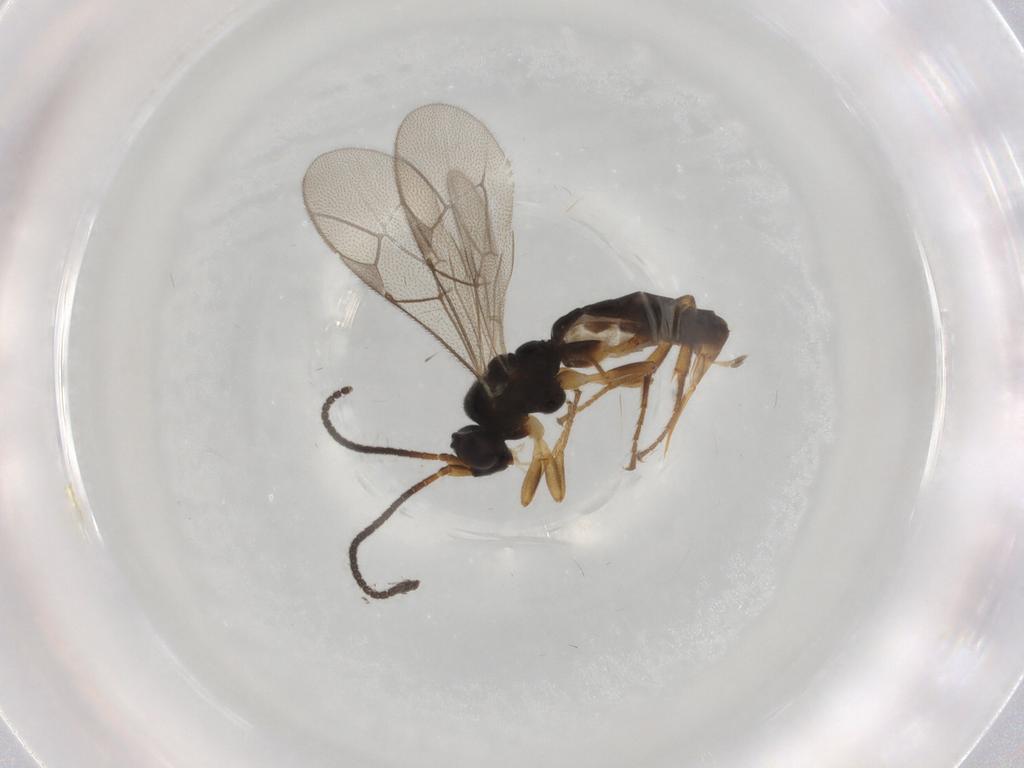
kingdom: Animalia
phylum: Arthropoda
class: Insecta
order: Hymenoptera
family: Ichneumonidae
